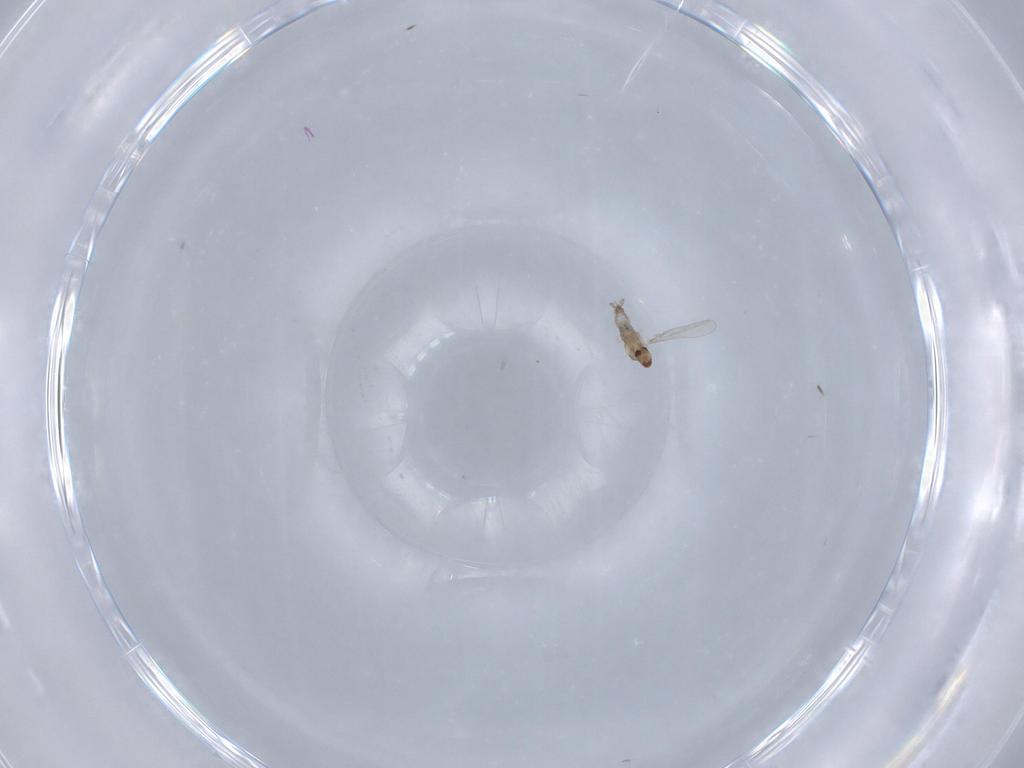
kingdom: Animalia
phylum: Arthropoda
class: Insecta
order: Diptera
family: Cecidomyiidae
